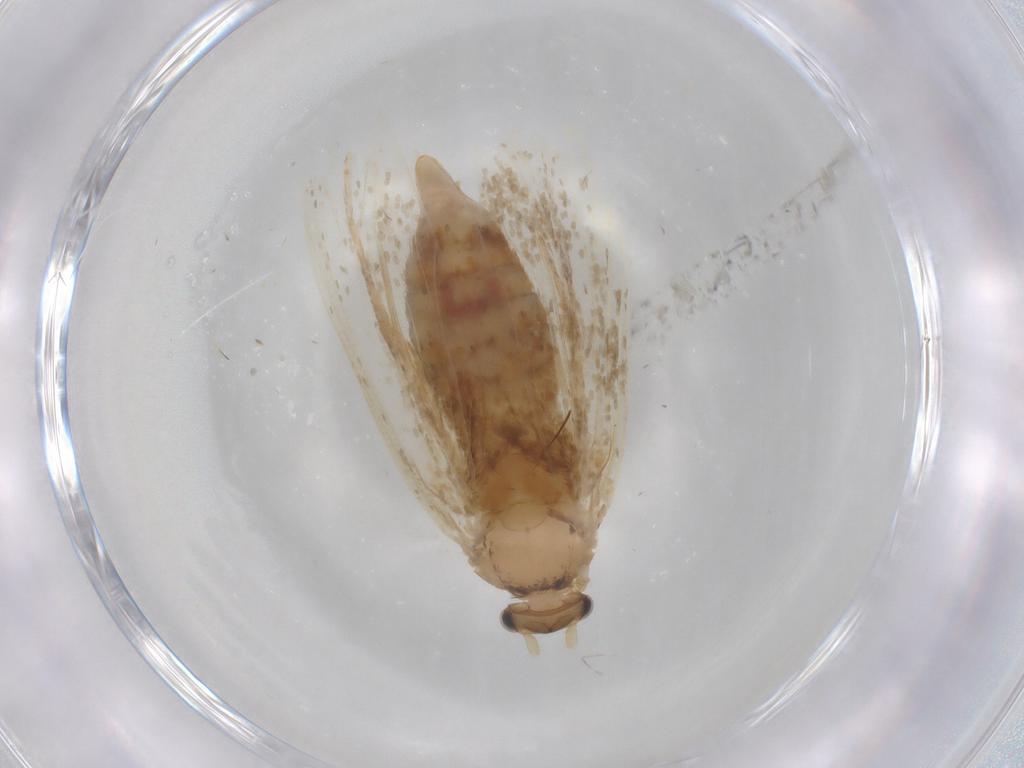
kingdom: Animalia
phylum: Arthropoda
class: Insecta
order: Lepidoptera
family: Tineidae
